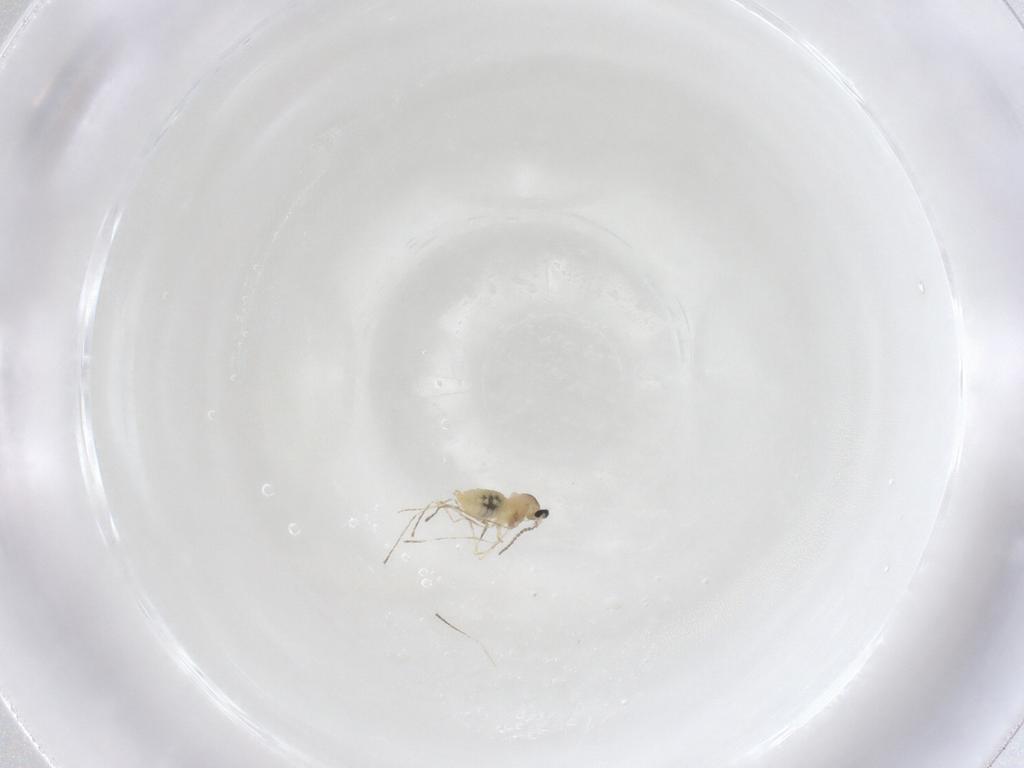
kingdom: Animalia
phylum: Arthropoda
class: Insecta
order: Diptera
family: Cecidomyiidae
